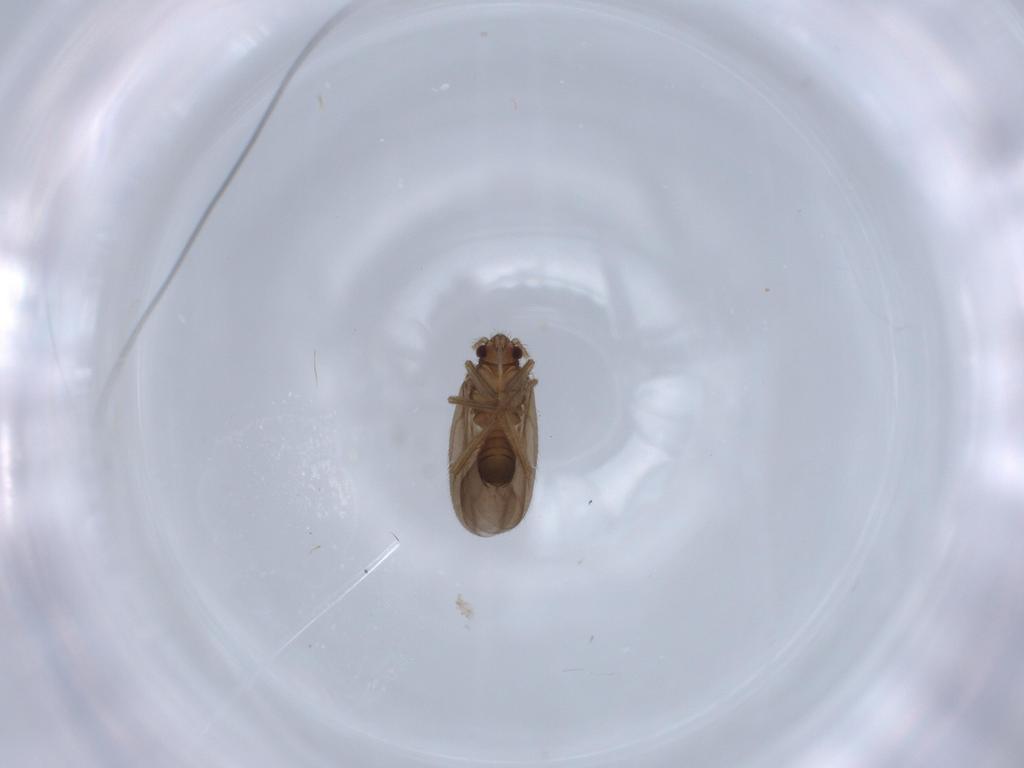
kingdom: Animalia
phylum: Arthropoda
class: Insecta
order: Hemiptera
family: Ceratocombidae
